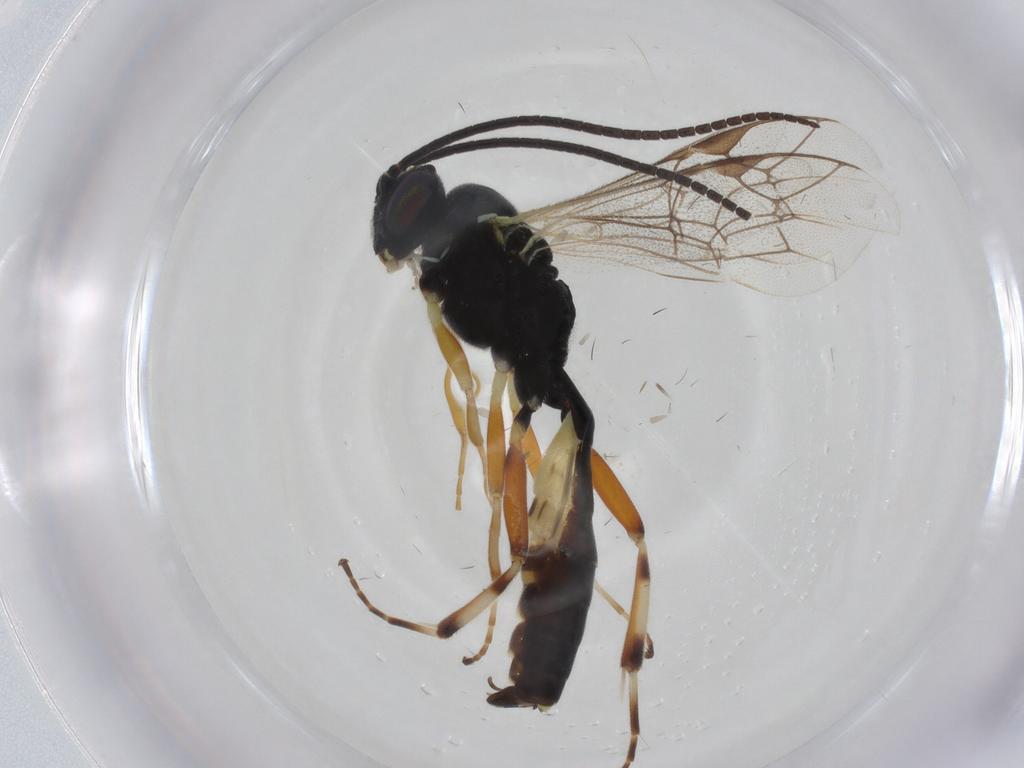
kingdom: Animalia
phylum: Arthropoda
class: Insecta
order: Hymenoptera
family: Ichneumonidae
